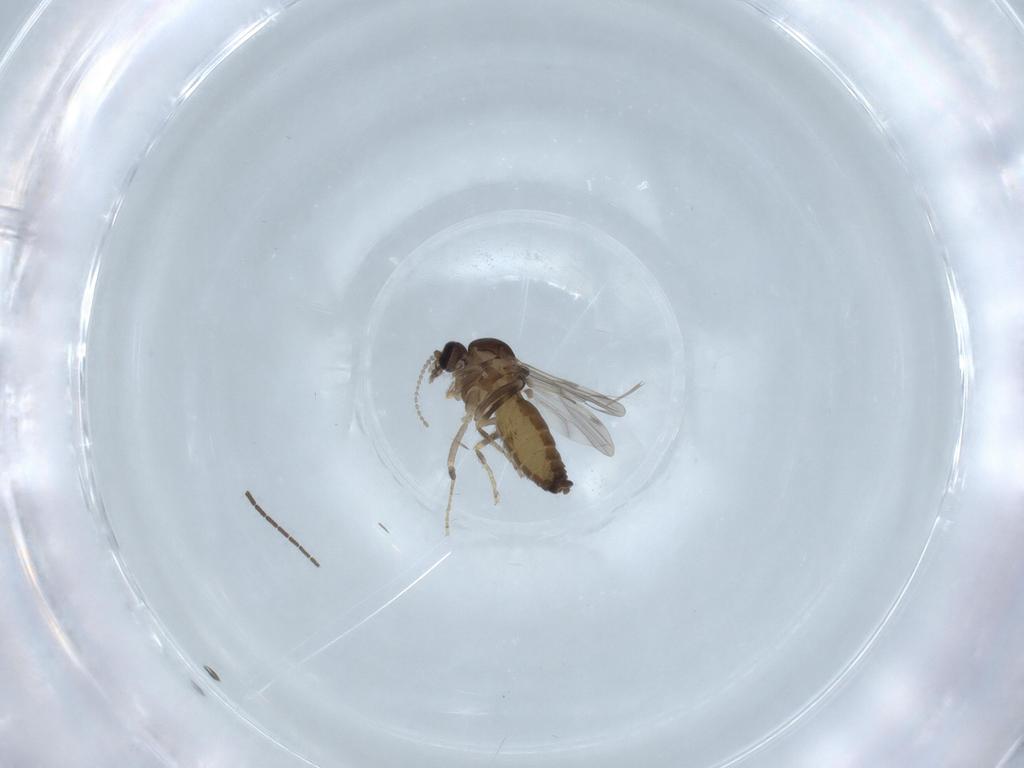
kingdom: Animalia
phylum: Arthropoda
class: Insecta
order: Diptera
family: Ceratopogonidae
